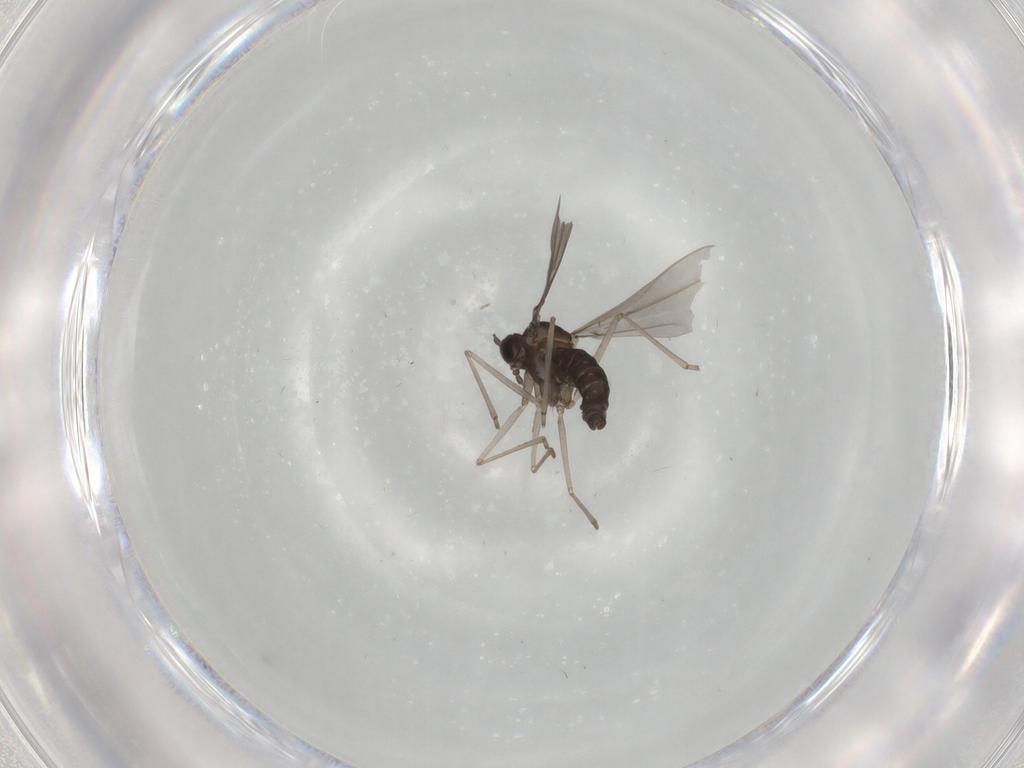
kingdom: Animalia
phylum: Arthropoda
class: Insecta
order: Diptera
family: Cecidomyiidae
